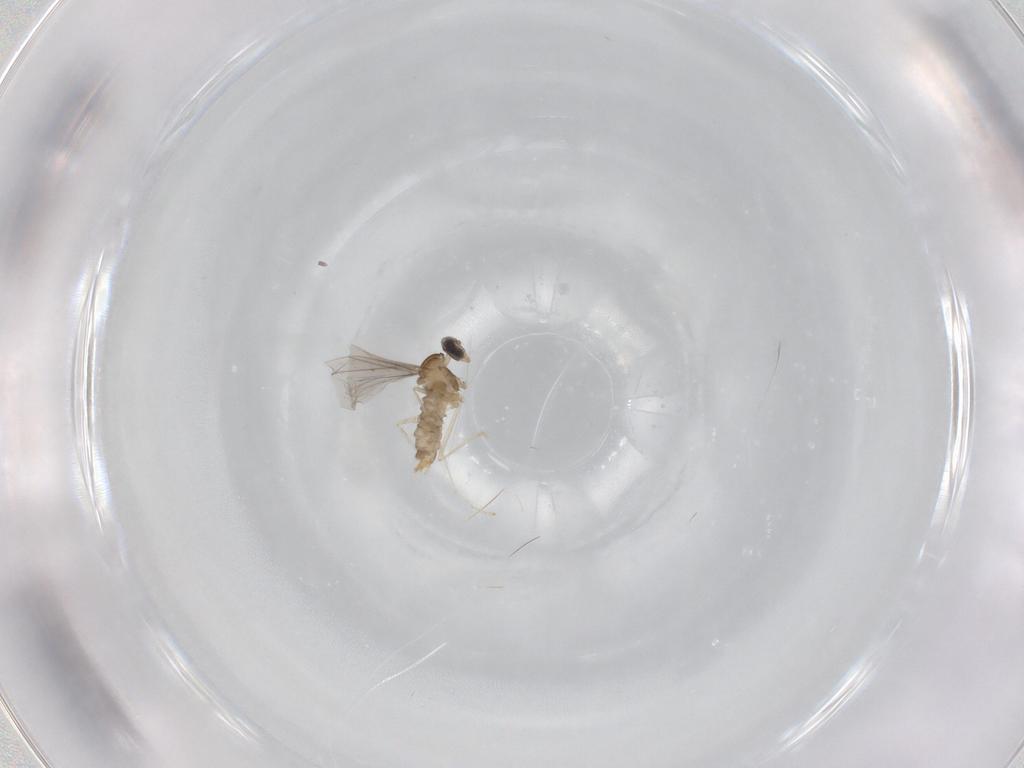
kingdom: Animalia
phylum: Arthropoda
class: Insecta
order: Diptera
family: Cecidomyiidae
